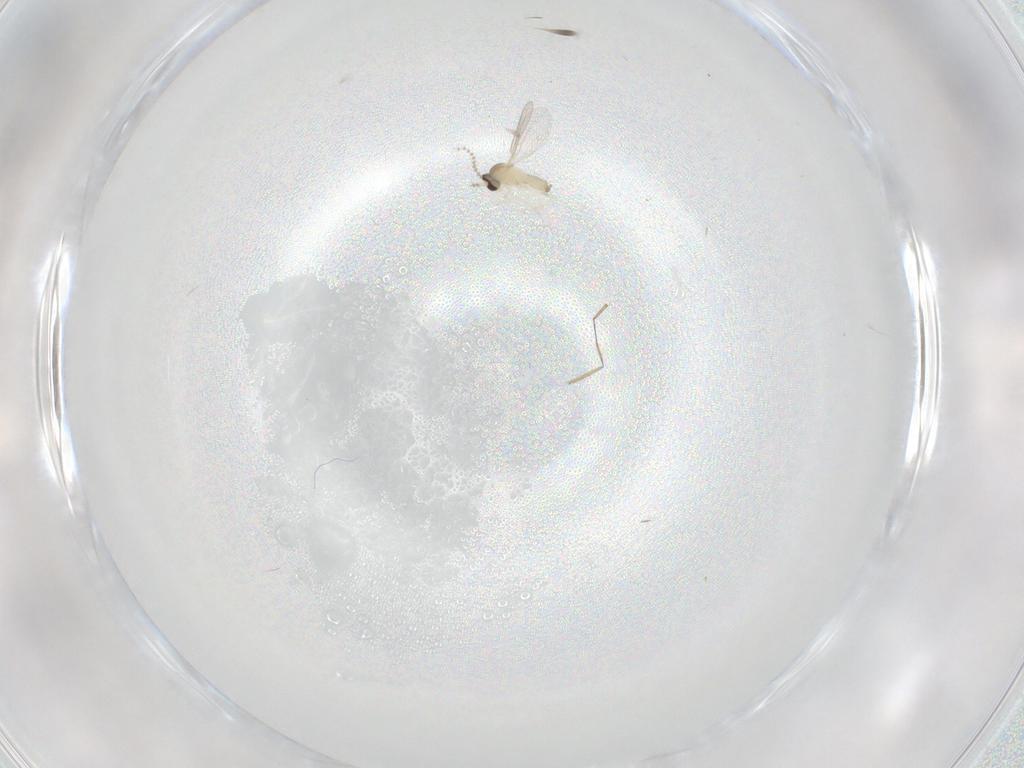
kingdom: Animalia
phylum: Arthropoda
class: Insecta
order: Diptera
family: Cecidomyiidae
